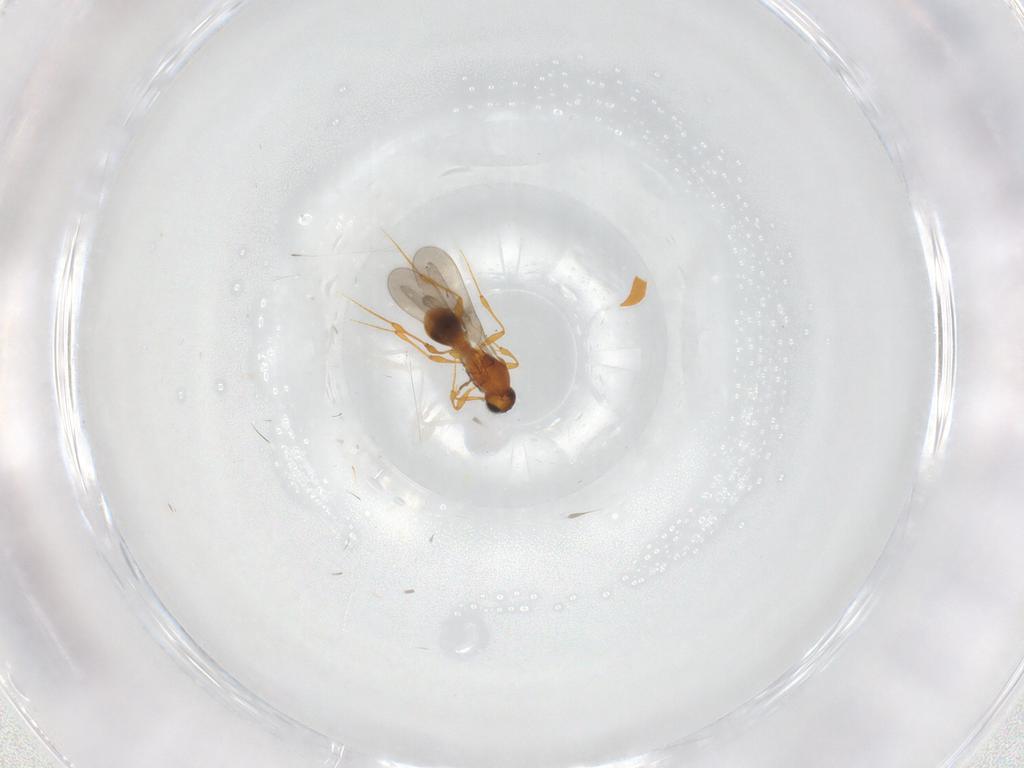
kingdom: Animalia
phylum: Arthropoda
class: Insecta
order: Hymenoptera
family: Platygastridae
